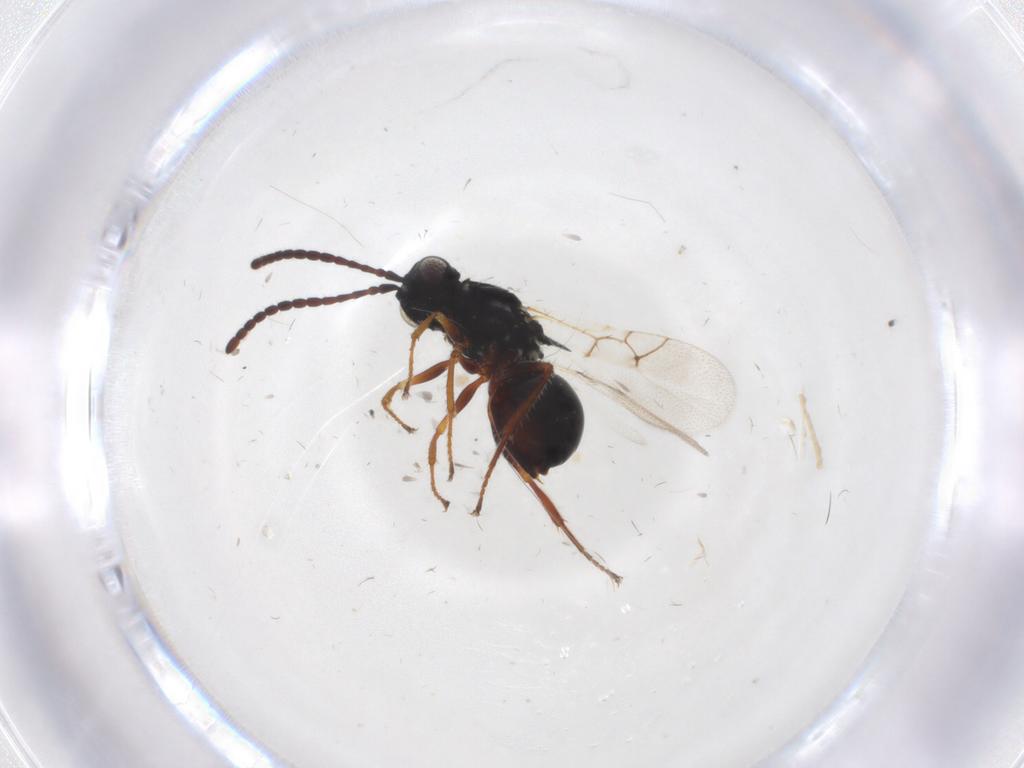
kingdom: Animalia
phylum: Arthropoda
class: Insecta
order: Hymenoptera
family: Figitidae
